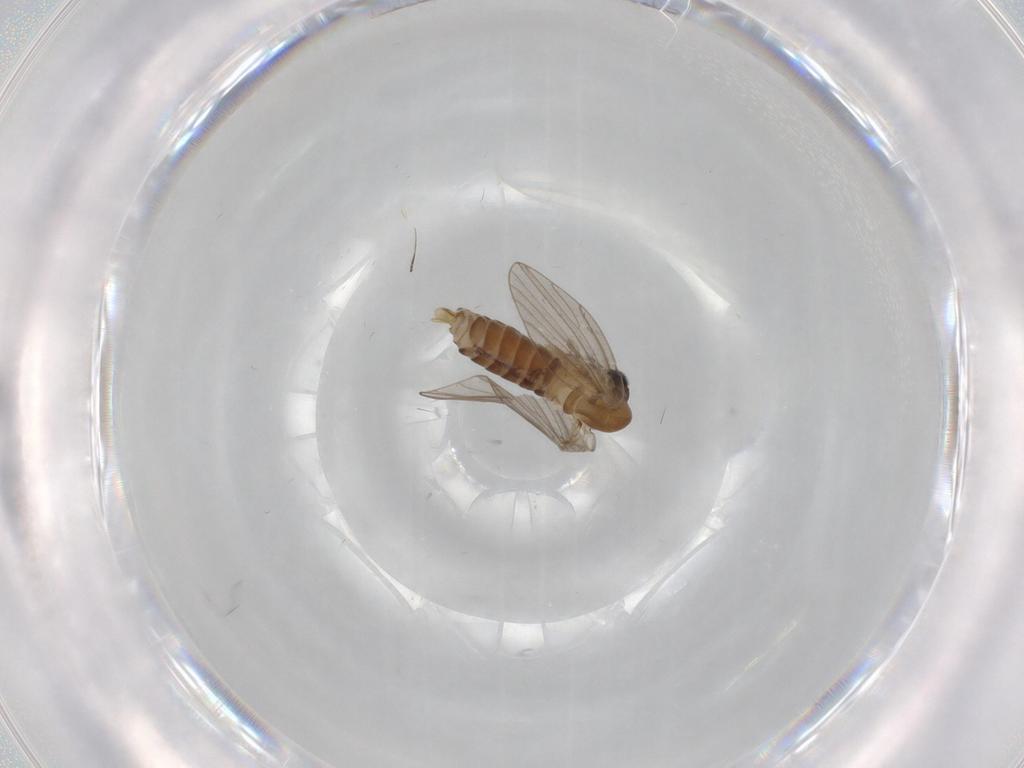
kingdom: Animalia
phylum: Arthropoda
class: Insecta
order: Diptera
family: Psychodidae
